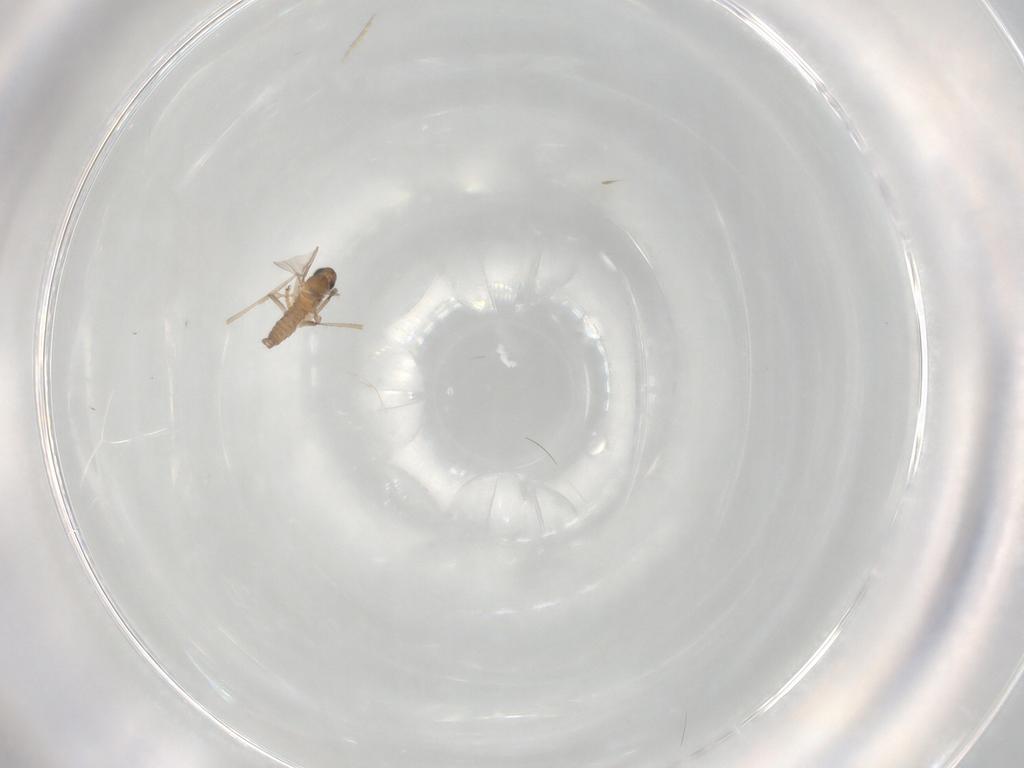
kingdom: Animalia
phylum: Arthropoda
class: Insecta
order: Diptera
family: Cecidomyiidae
